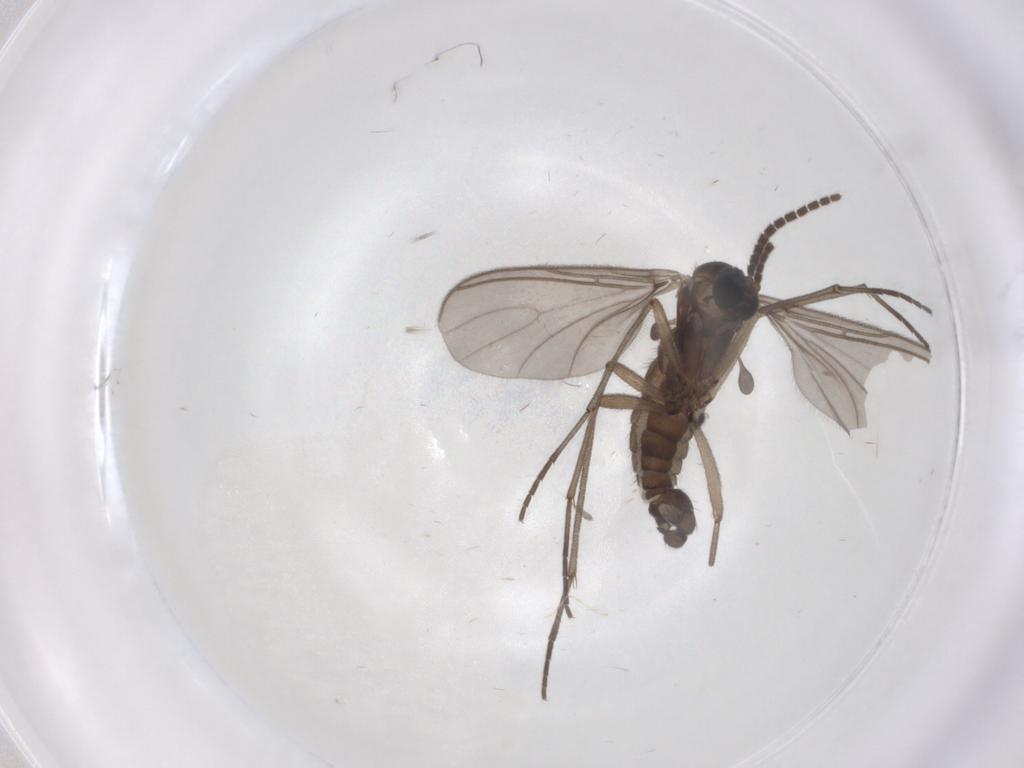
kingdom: Animalia
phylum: Arthropoda
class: Insecta
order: Diptera
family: Sciaridae
